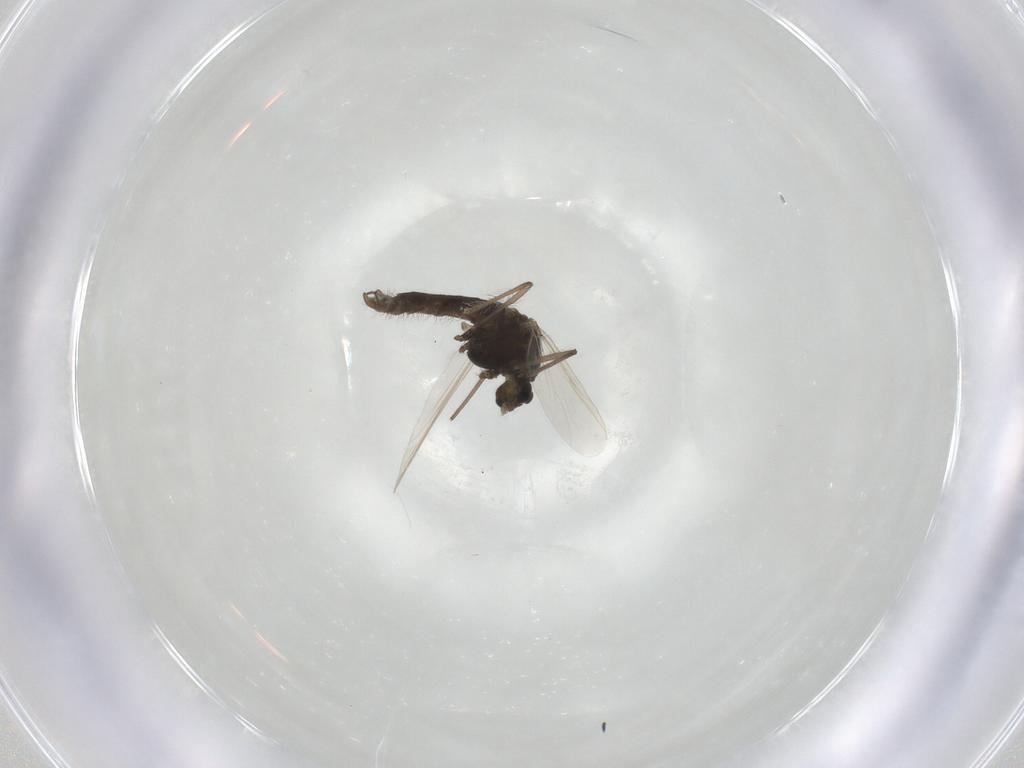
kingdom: Animalia
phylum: Arthropoda
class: Insecta
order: Diptera
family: Chironomidae
